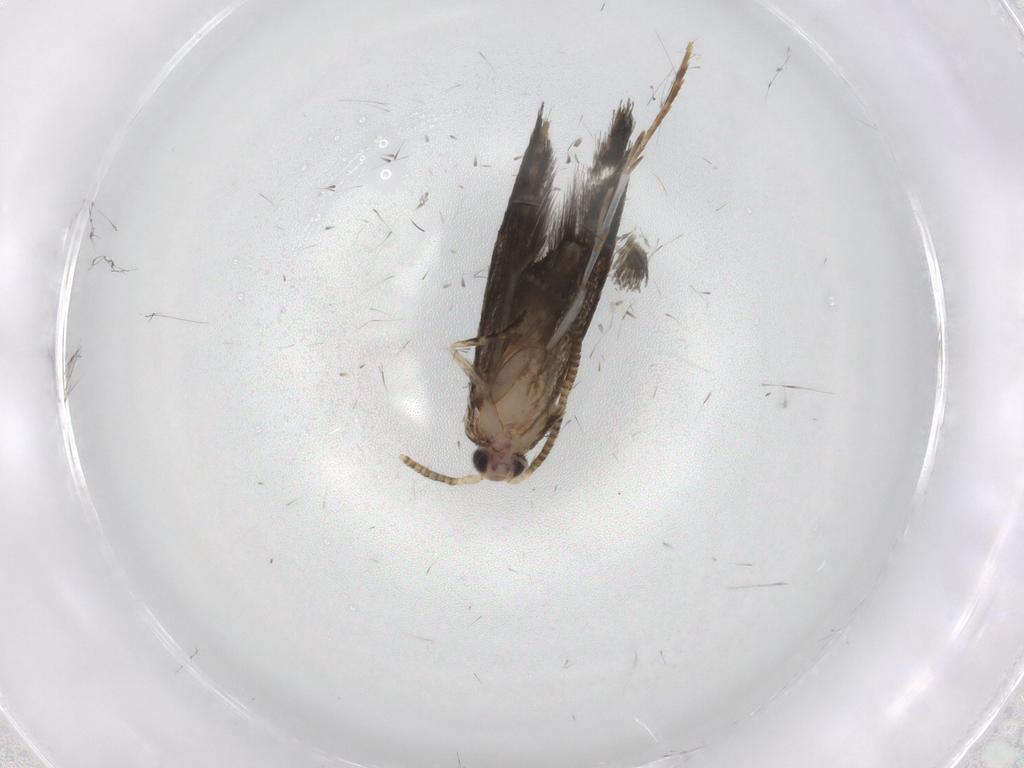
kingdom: Animalia
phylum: Arthropoda
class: Insecta
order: Lepidoptera
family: Tineidae
